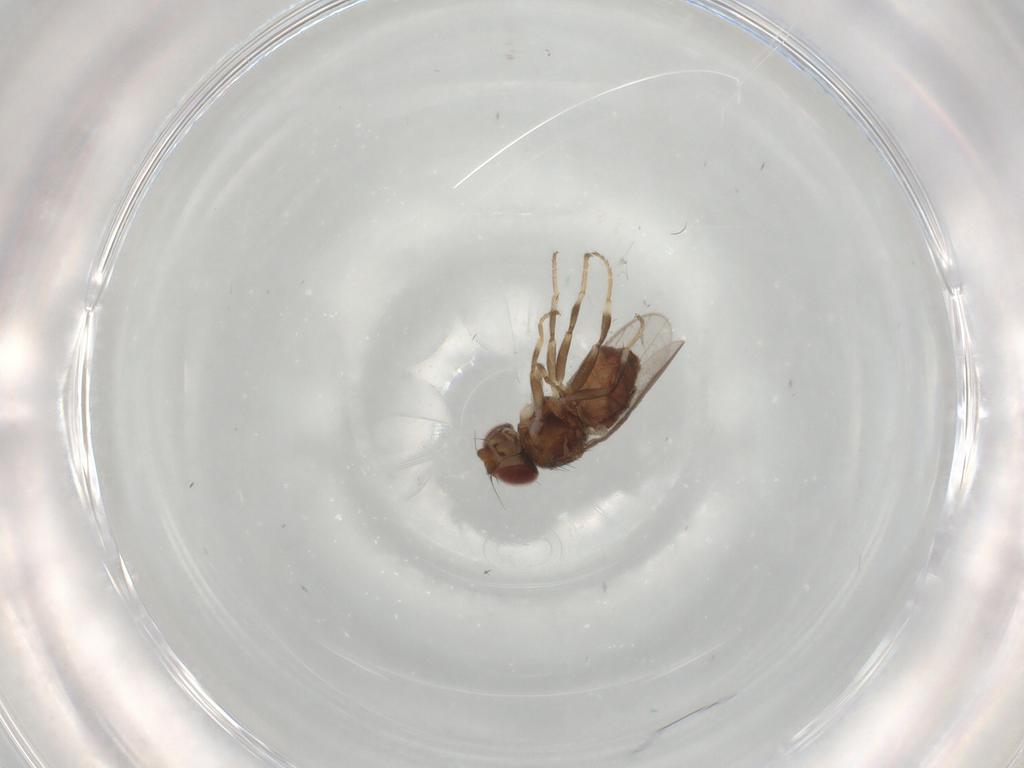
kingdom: Animalia
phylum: Arthropoda
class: Insecta
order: Diptera
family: Chloropidae
